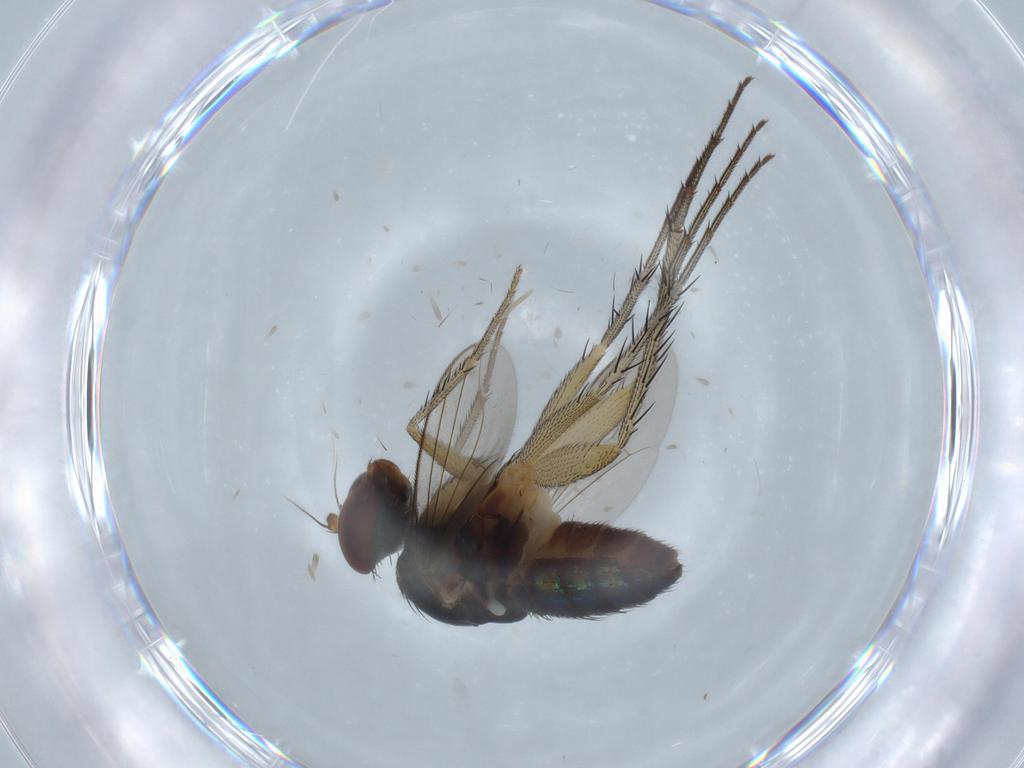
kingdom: Animalia
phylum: Arthropoda
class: Insecta
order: Diptera
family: Dolichopodidae
